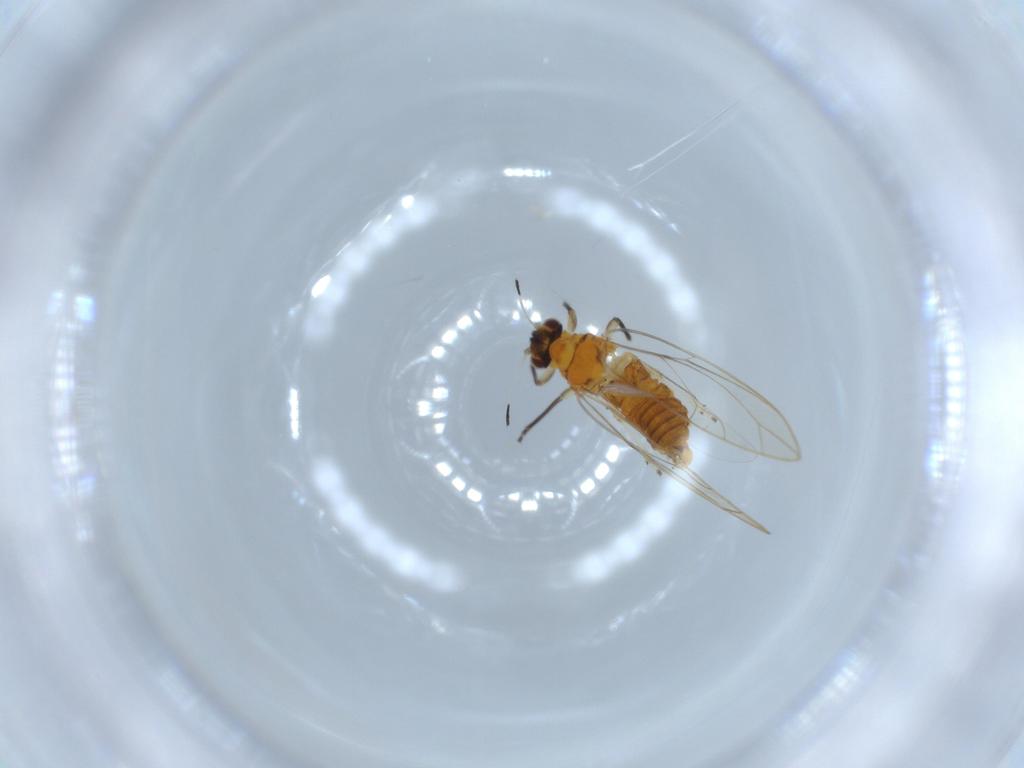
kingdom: Animalia
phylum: Arthropoda
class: Insecta
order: Hemiptera
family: Triozidae
